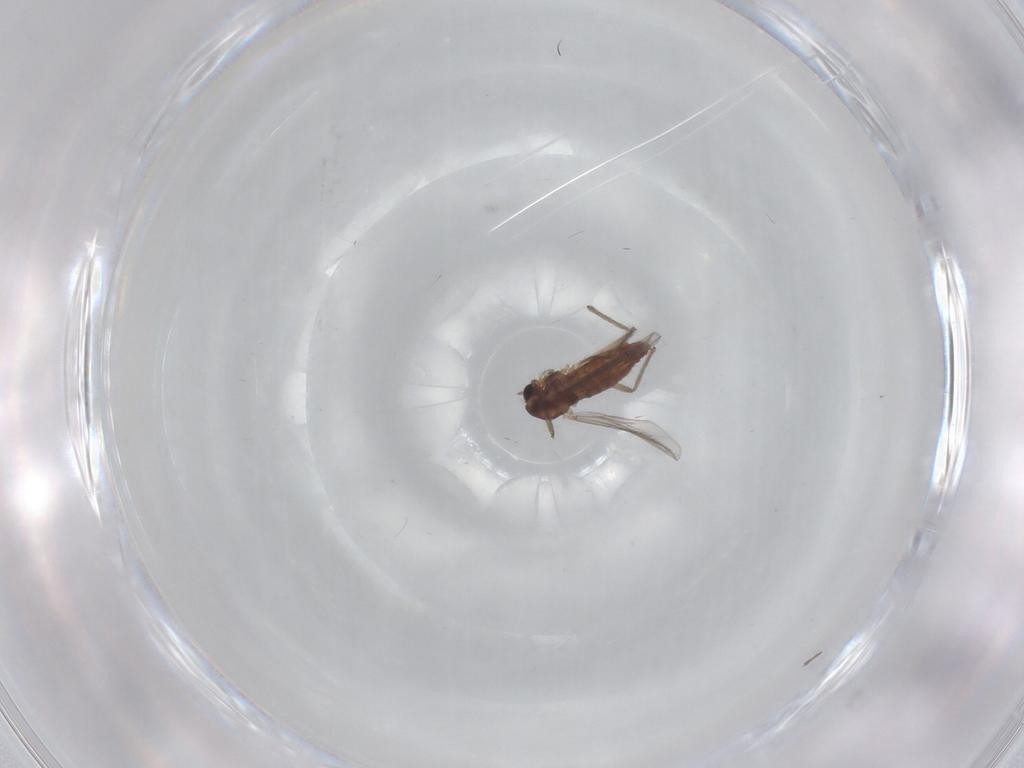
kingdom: Animalia
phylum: Arthropoda
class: Insecta
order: Diptera
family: Chironomidae
